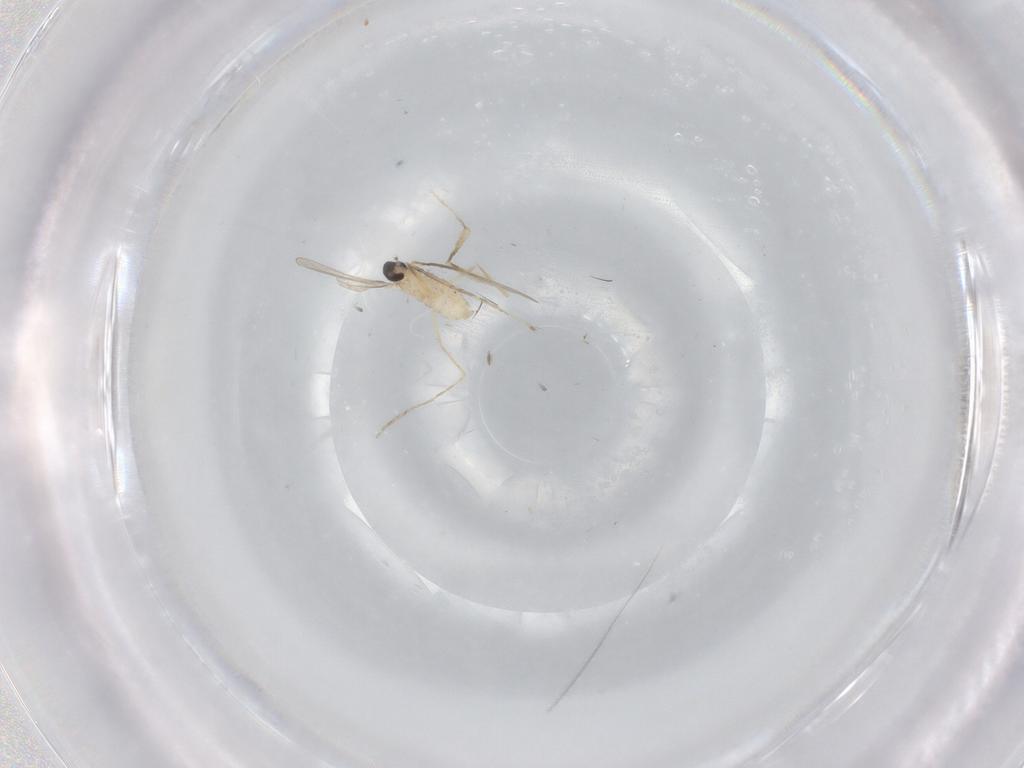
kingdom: Animalia
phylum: Arthropoda
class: Insecta
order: Diptera
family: Cecidomyiidae
